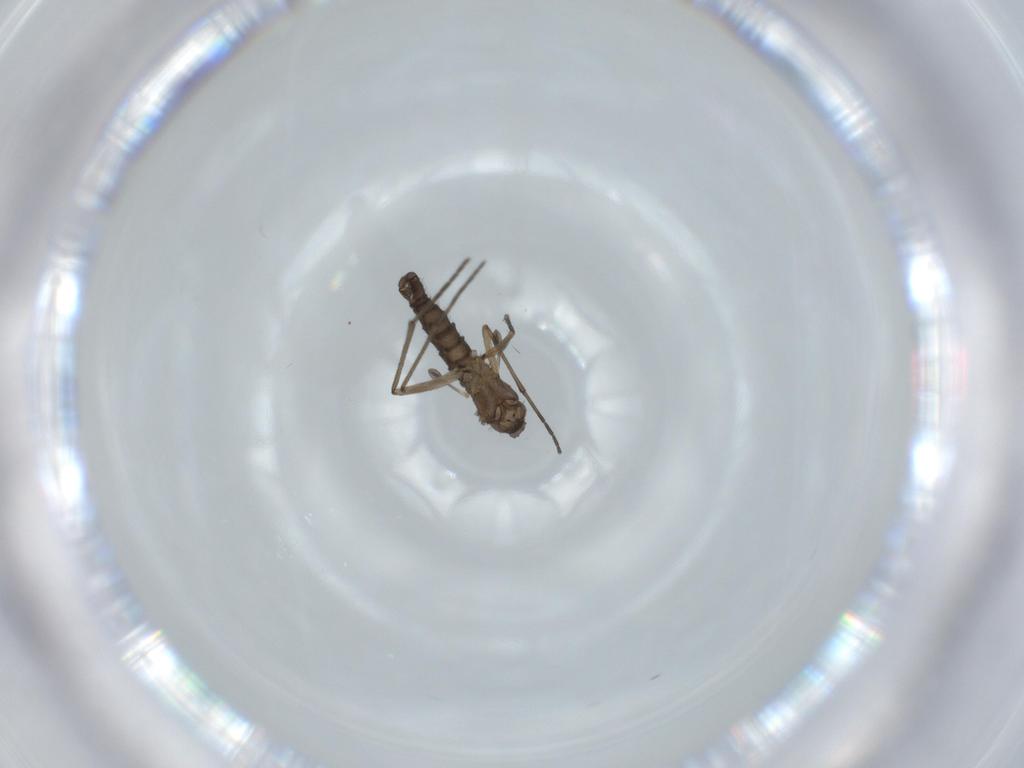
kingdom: Animalia
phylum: Arthropoda
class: Insecta
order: Diptera
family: Sciaridae
